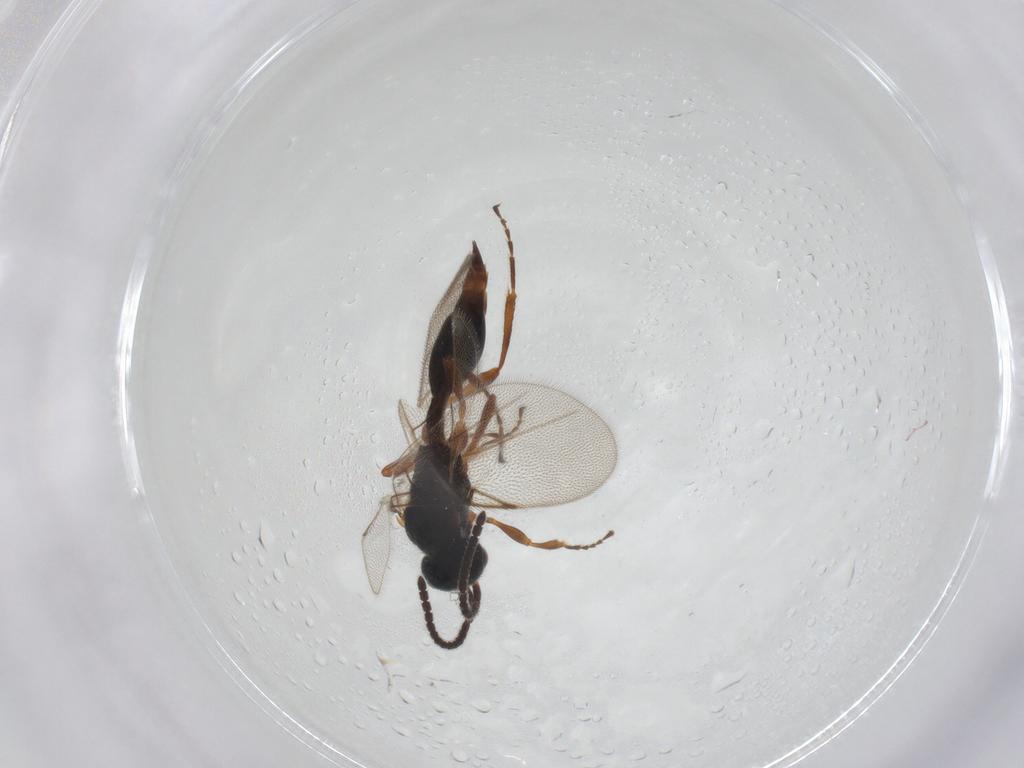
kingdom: Animalia
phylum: Arthropoda
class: Insecta
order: Hymenoptera
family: Diapriidae
